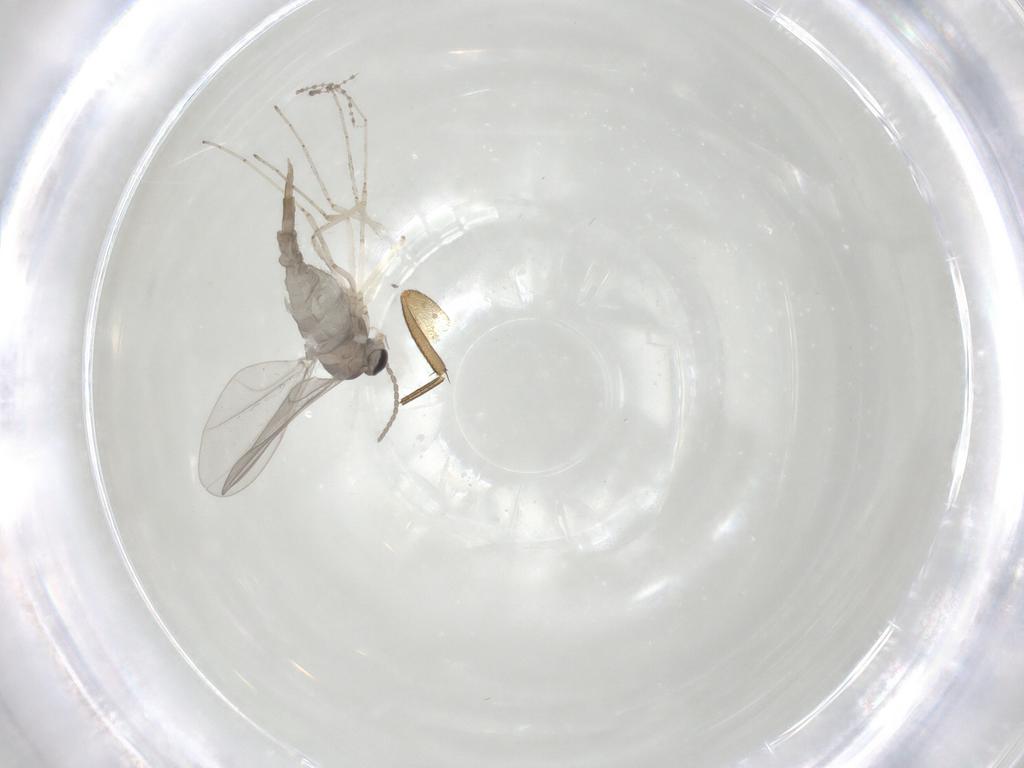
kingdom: Animalia
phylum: Arthropoda
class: Insecta
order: Diptera
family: Cecidomyiidae
